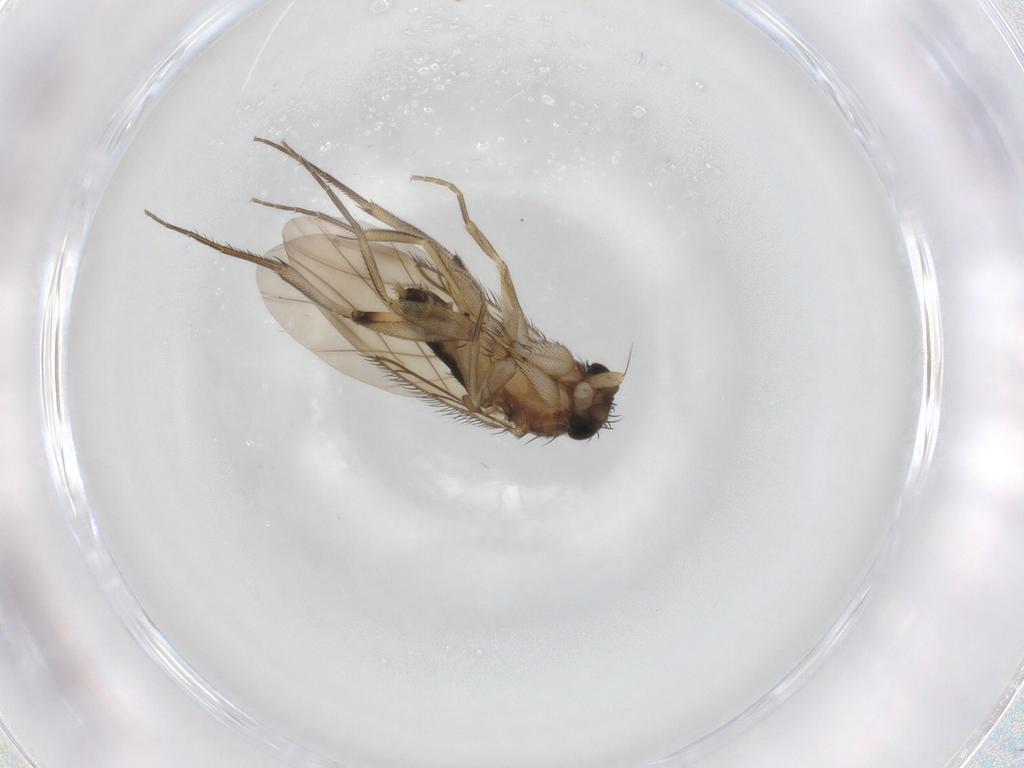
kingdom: Animalia
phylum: Arthropoda
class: Insecta
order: Diptera
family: Phoridae
